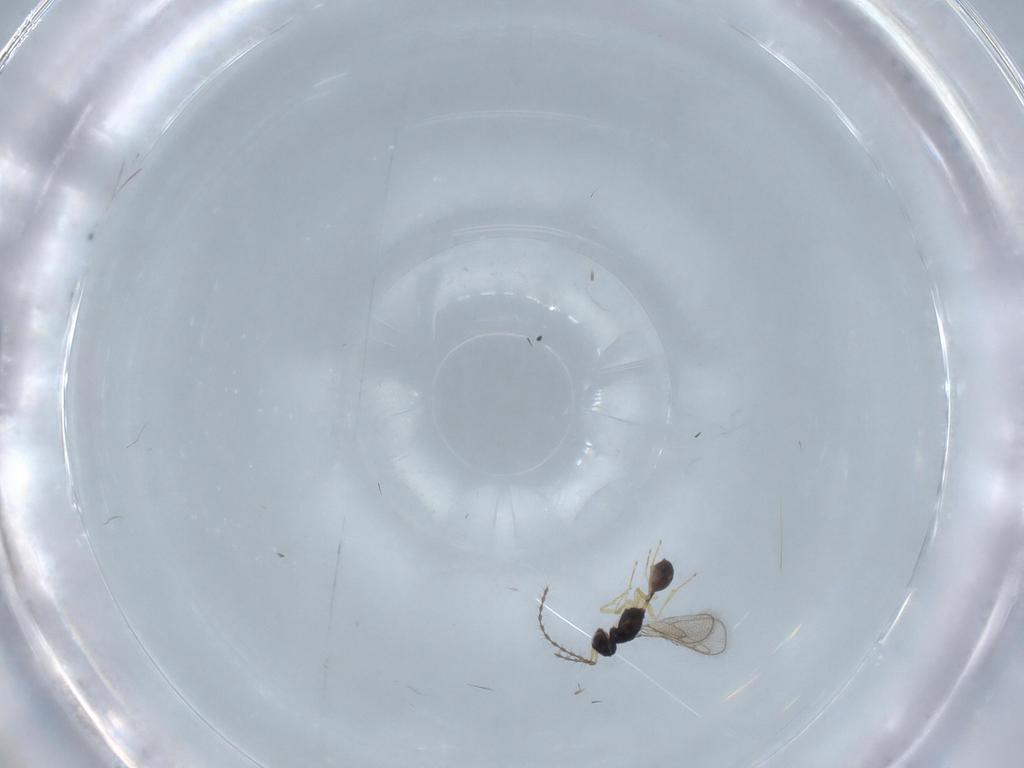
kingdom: Animalia
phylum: Arthropoda
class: Insecta
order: Hymenoptera
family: Diparidae
